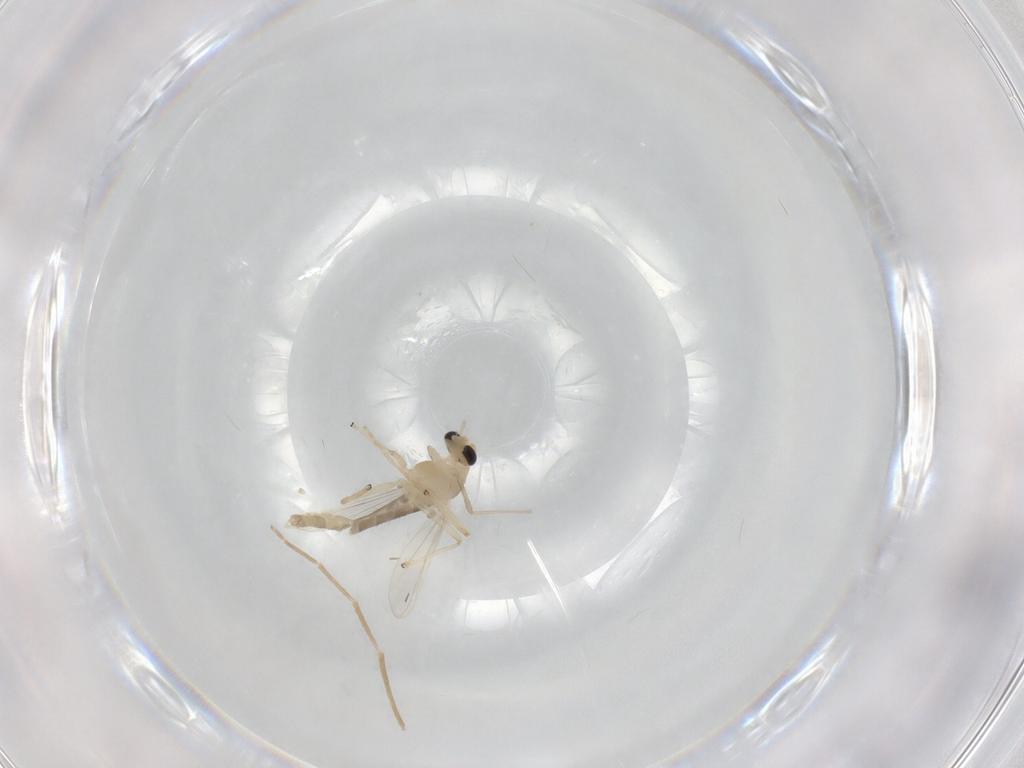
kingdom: Animalia
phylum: Arthropoda
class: Insecta
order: Diptera
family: Chironomidae
